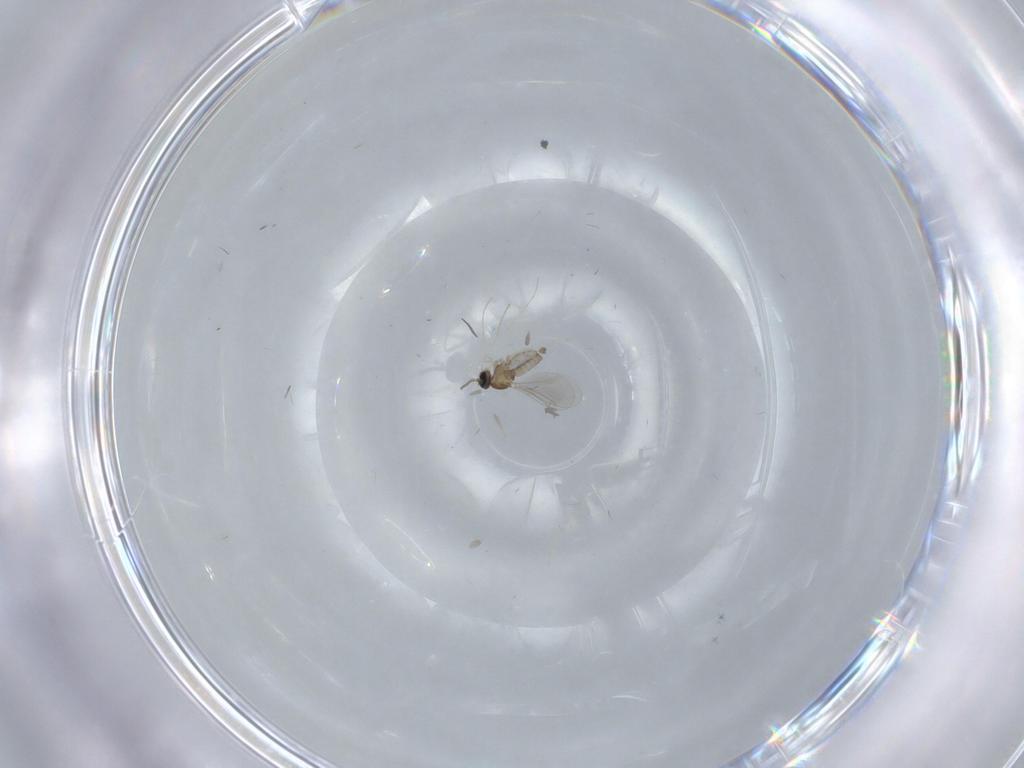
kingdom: Animalia
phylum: Arthropoda
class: Insecta
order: Diptera
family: Cecidomyiidae
